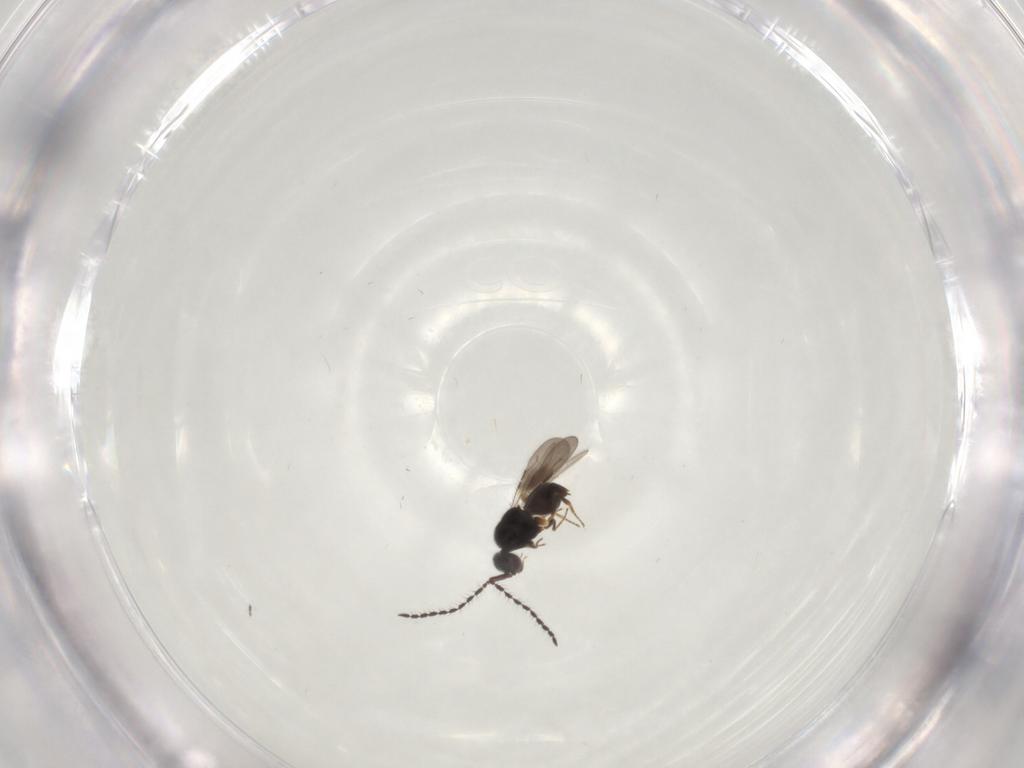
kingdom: Animalia
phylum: Arthropoda
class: Insecta
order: Hymenoptera
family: Ceraphronidae
